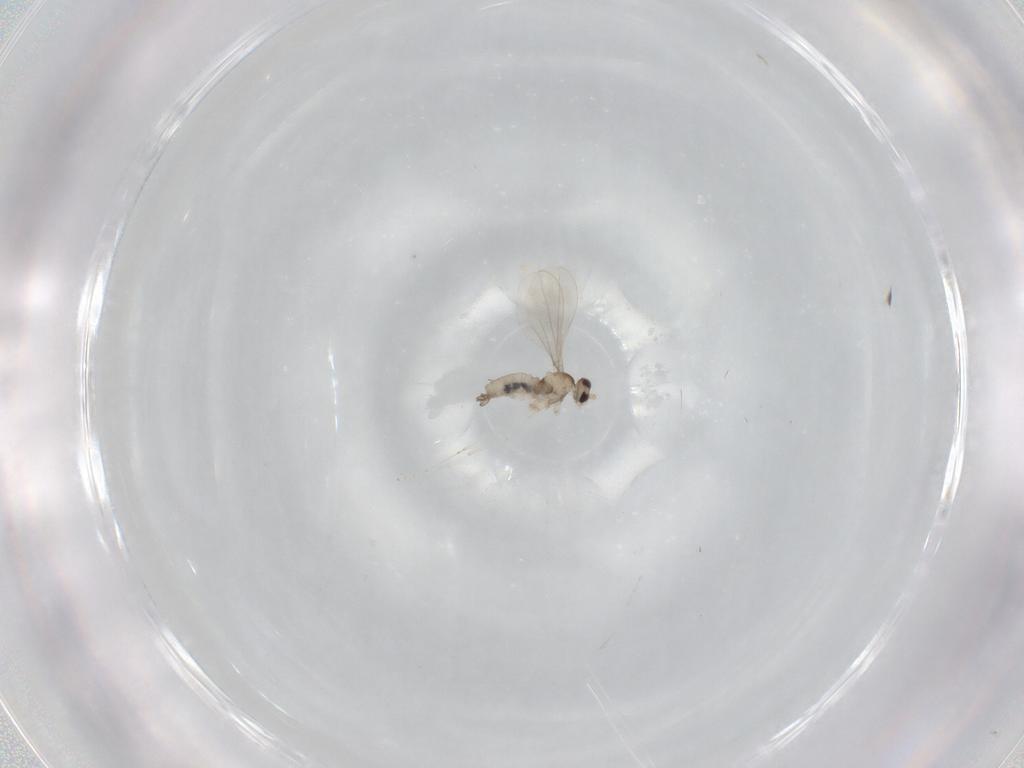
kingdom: Animalia
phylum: Arthropoda
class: Insecta
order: Diptera
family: Cecidomyiidae
